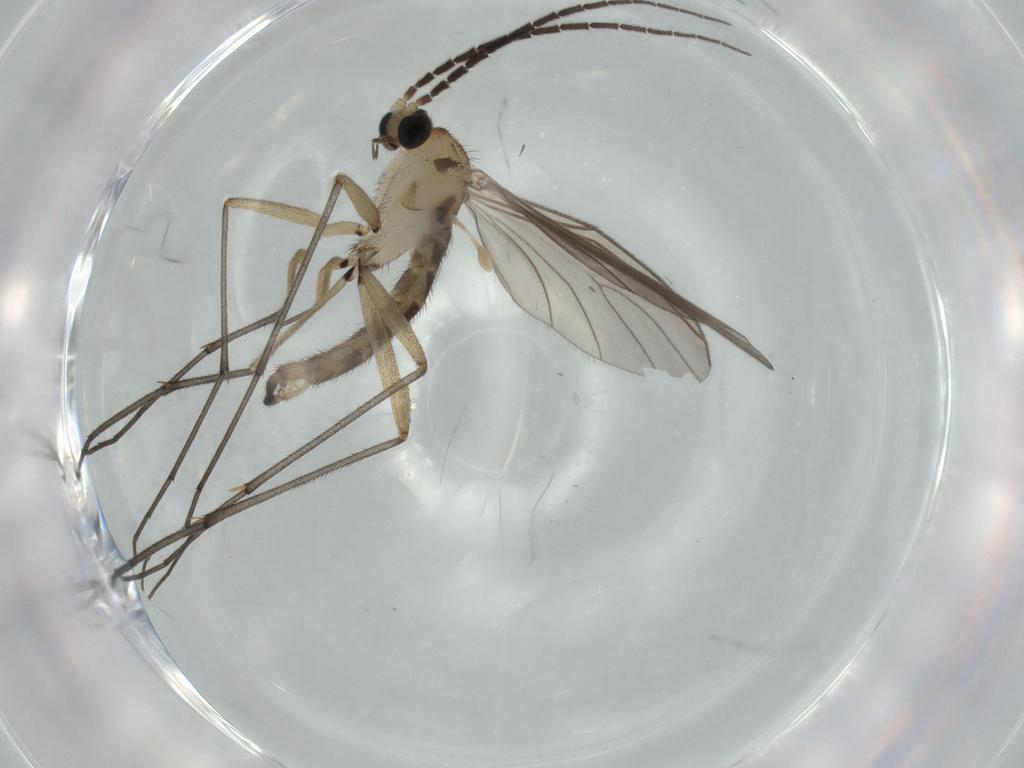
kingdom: Animalia
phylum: Arthropoda
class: Insecta
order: Diptera
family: Sciaridae
